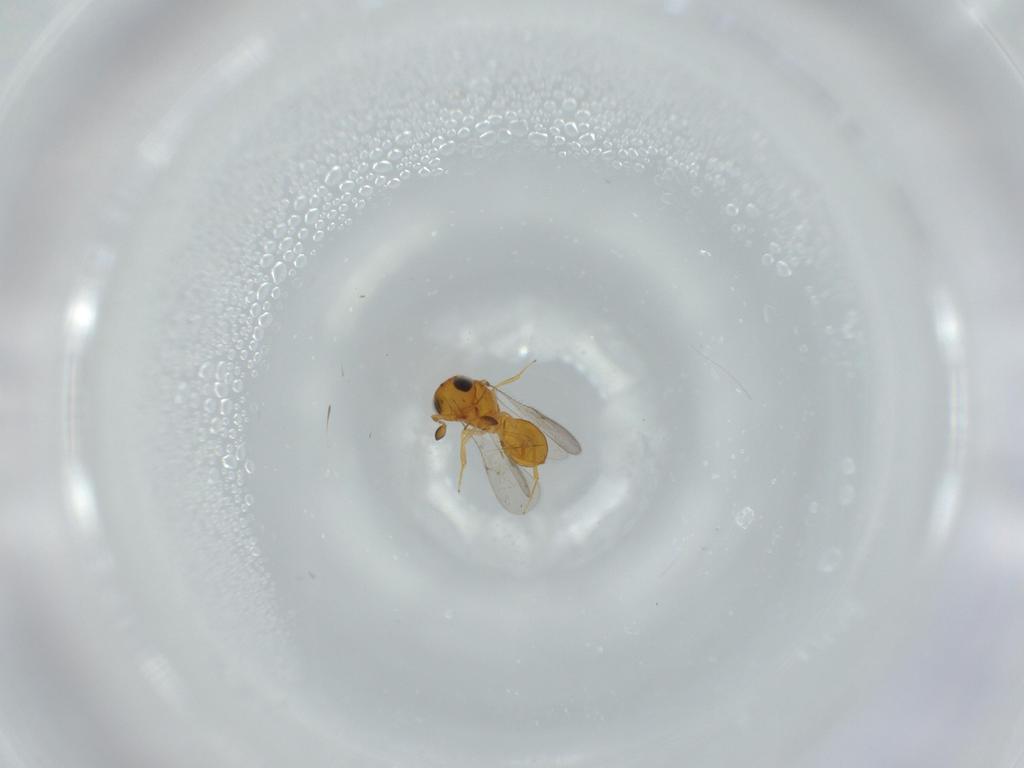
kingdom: Animalia
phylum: Arthropoda
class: Insecta
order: Hymenoptera
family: Scelionidae
